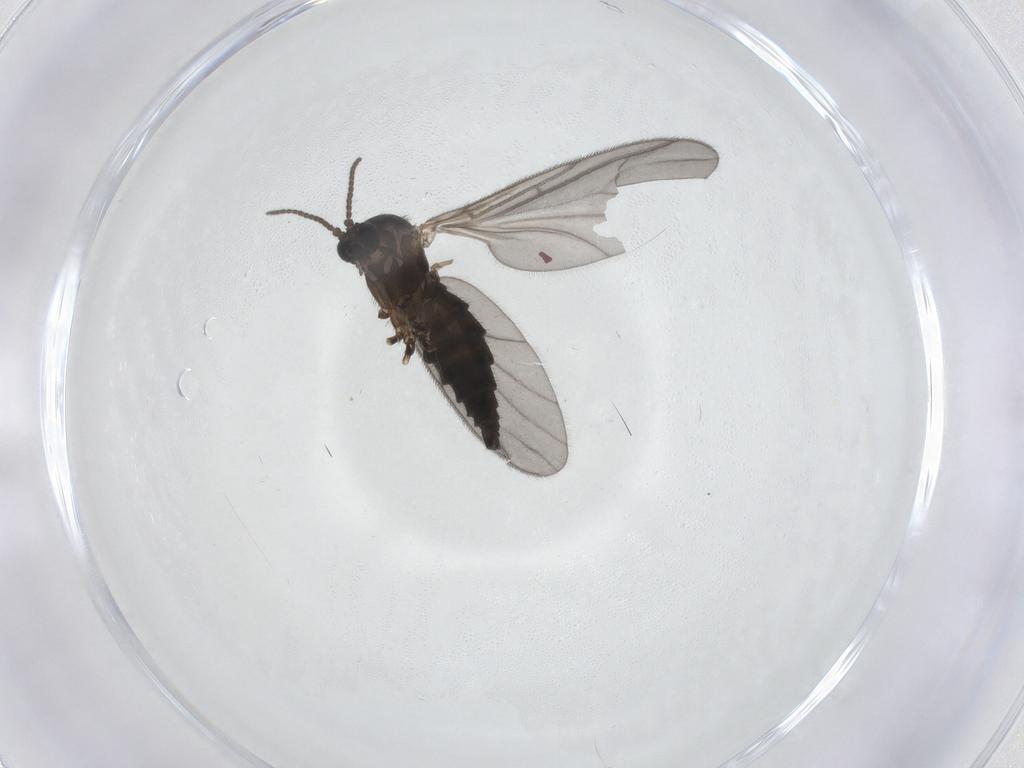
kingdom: Animalia
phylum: Arthropoda
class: Insecta
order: Diptera
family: Sciaridae
